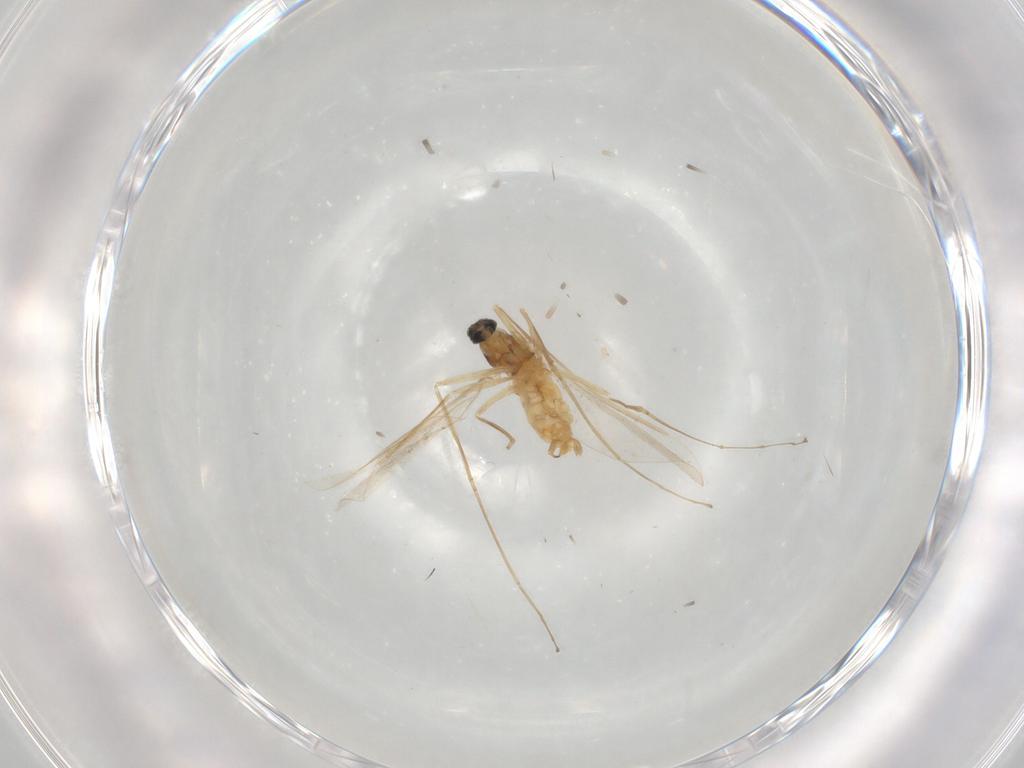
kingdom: Animalia
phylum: Arthropoda
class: Insecta
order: Diptera
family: Cecidomyiidae
